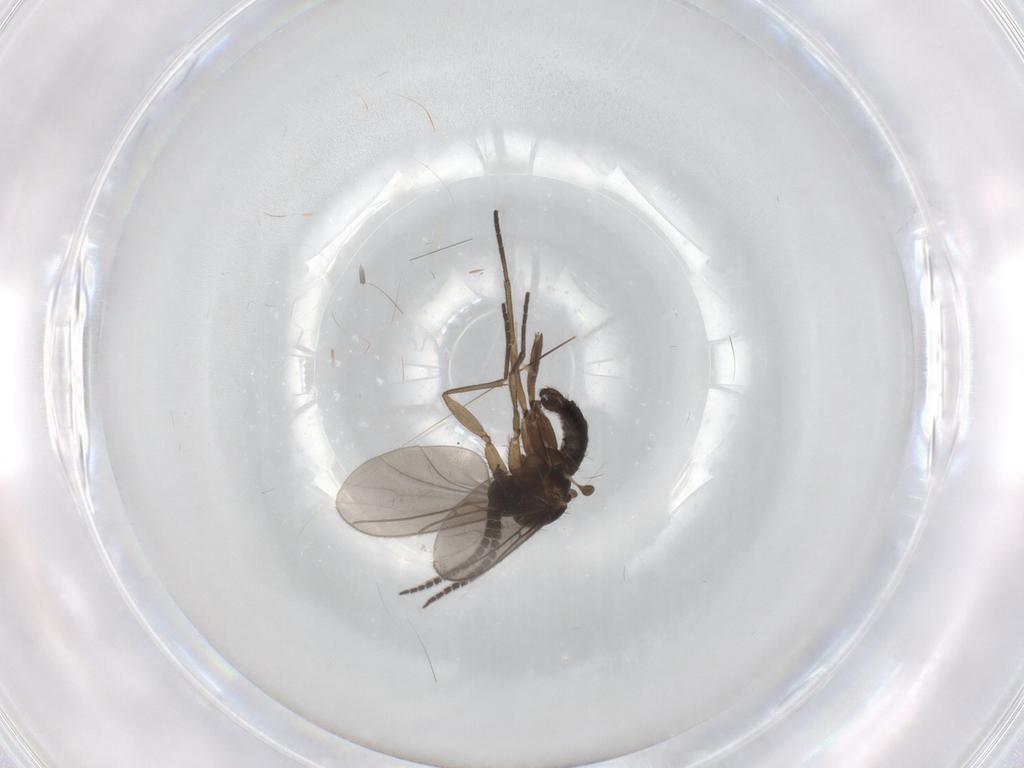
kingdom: Animalia
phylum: Arthropoda
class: Insecta
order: Diptera
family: Sciaridae
